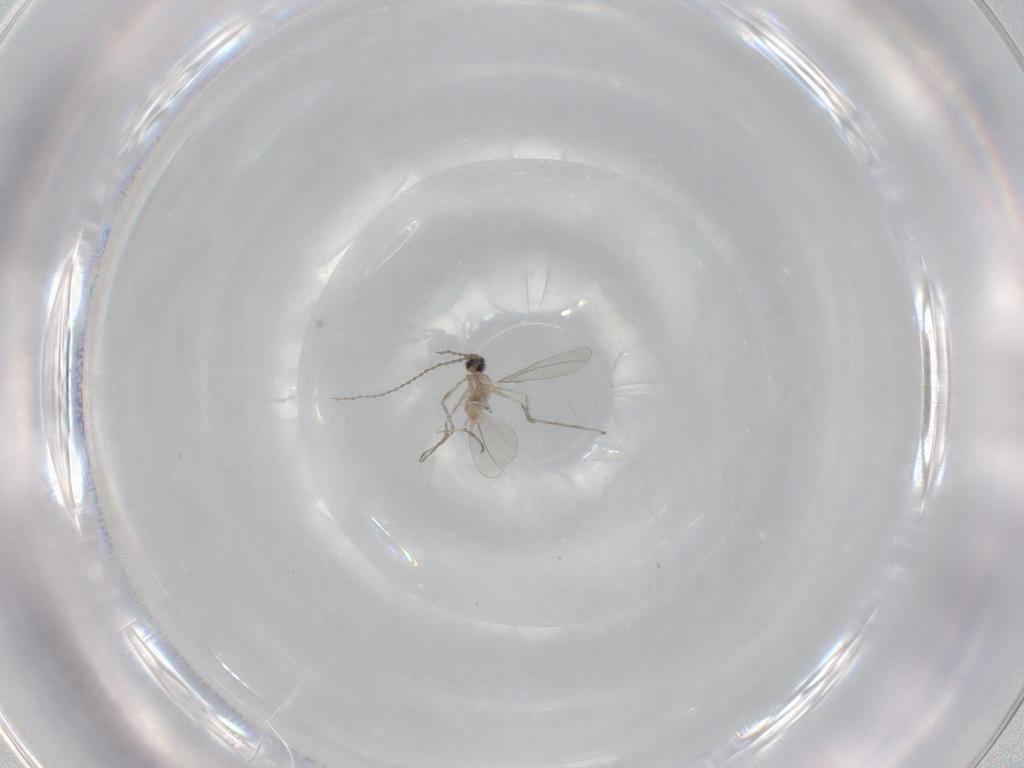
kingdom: Animalia
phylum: Arthropoda
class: Insecta
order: Diptera
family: Cecidomyiidae
